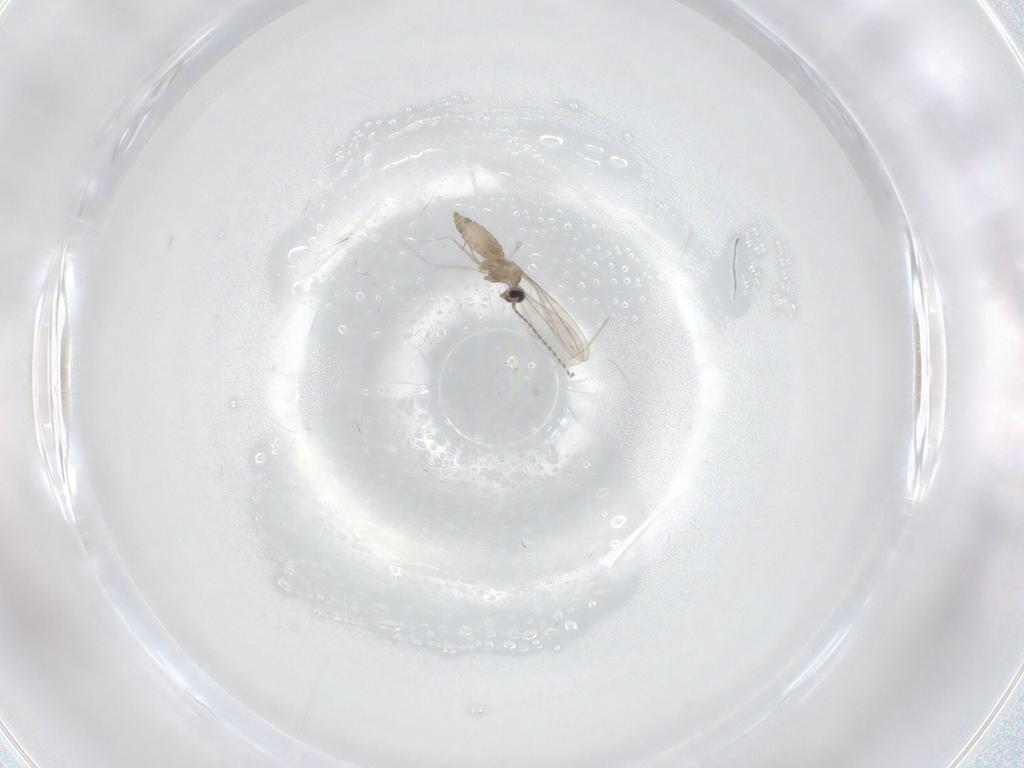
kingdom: Animalia
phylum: Arthropoda
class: Insecta
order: Diptera
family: Cecidomyiidae
